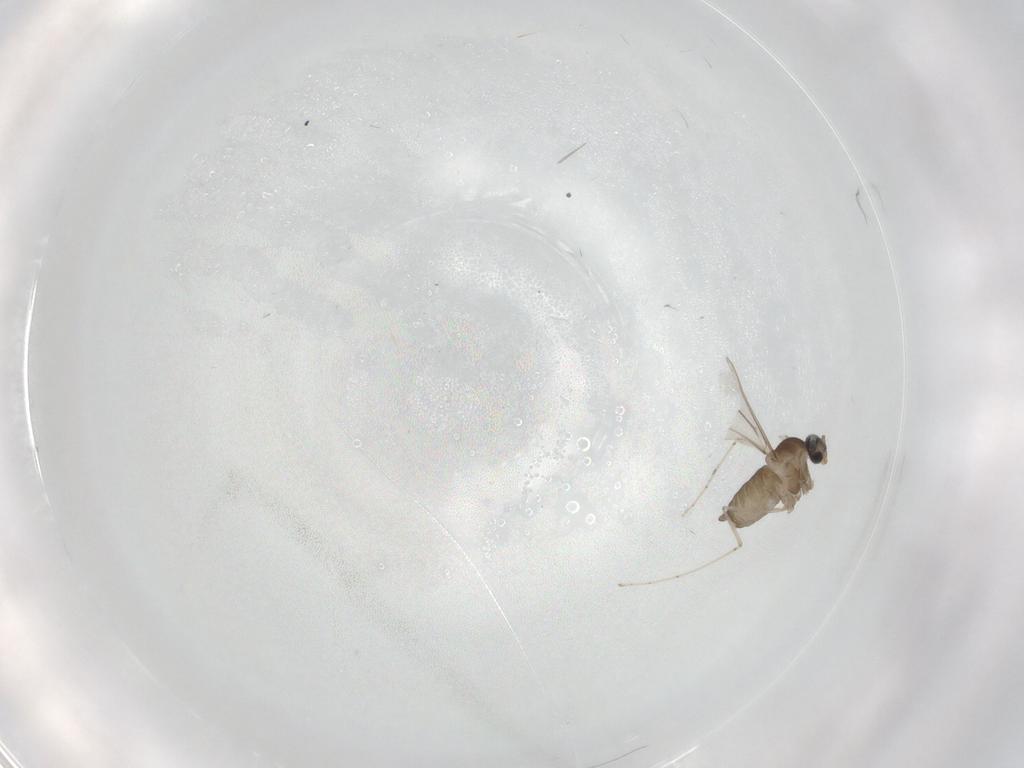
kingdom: Animalia
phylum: Arthropoda
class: Insecta
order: Diptera
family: Cecidomyiidae
